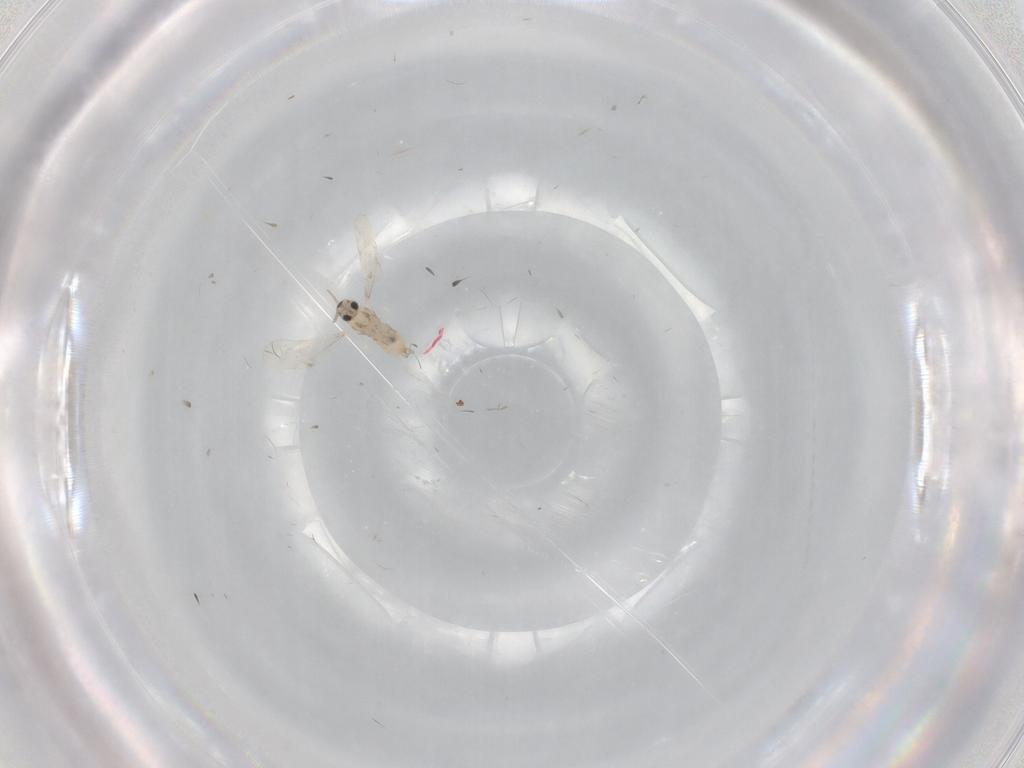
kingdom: Animalia
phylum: Arthropoda
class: Insecta
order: Diptera
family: Cecidomyiidae
